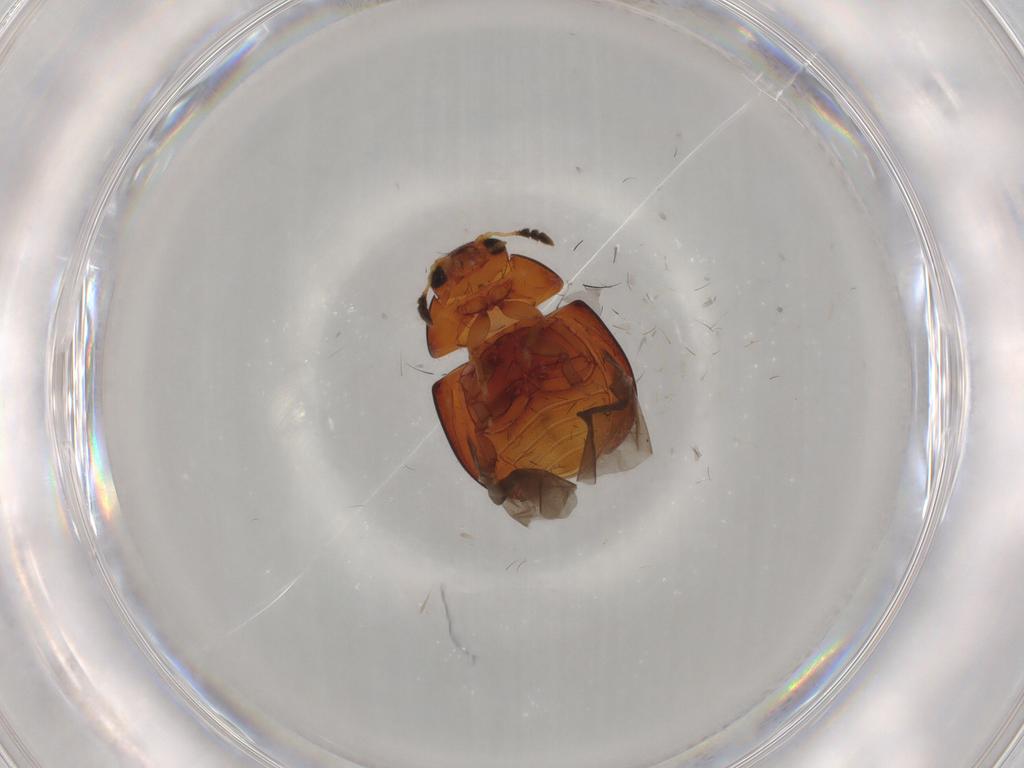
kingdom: Animalia
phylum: Arthropoda
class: Insecta
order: Coleoptera
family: Phalacridae
